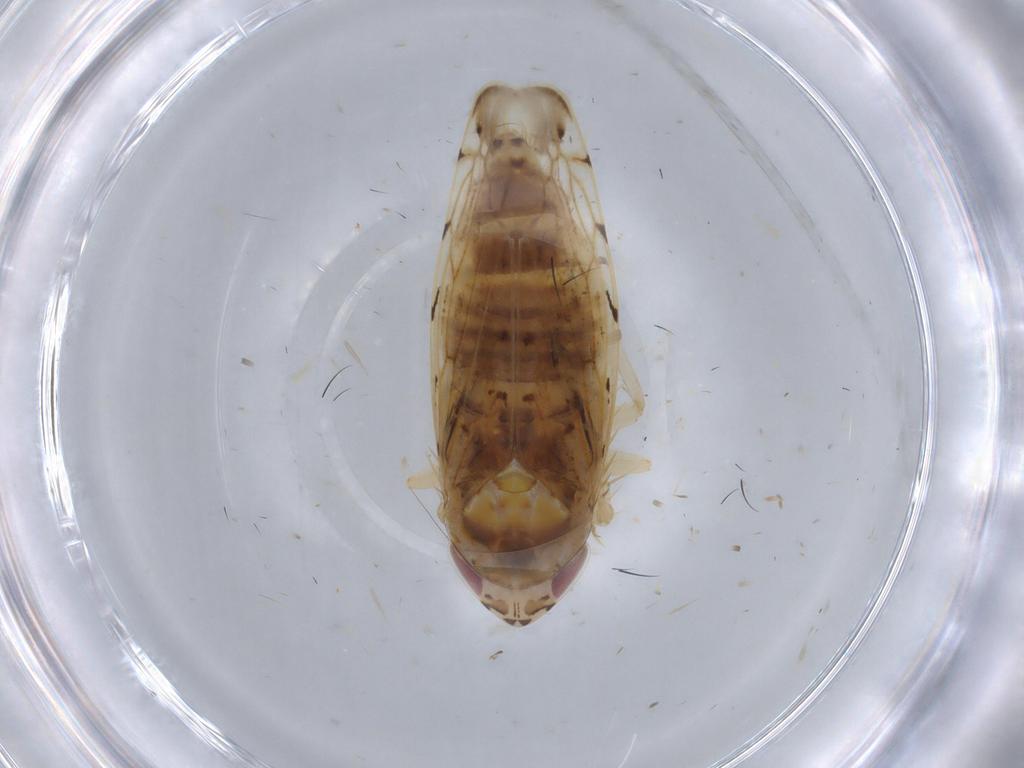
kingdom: Animalia
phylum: Arthropoda
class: Insecta
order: Hemiptera
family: Cicadellidae
